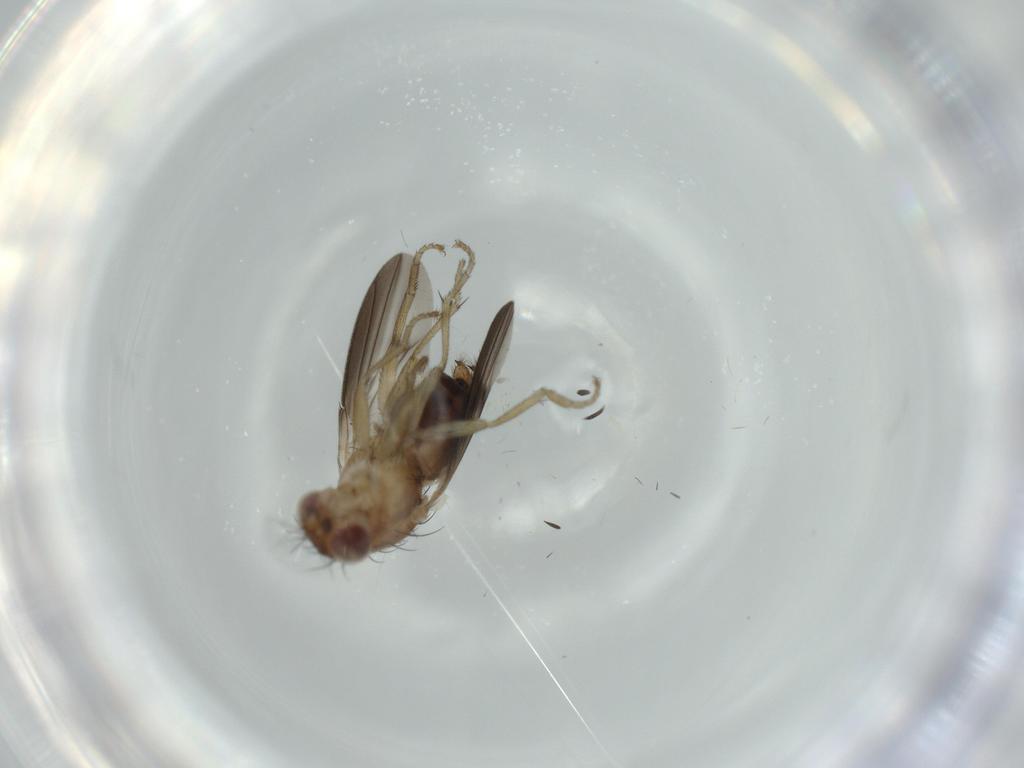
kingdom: Animalia
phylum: Arthropoda
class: Insecta
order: Diptera
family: Heleomyzidae
